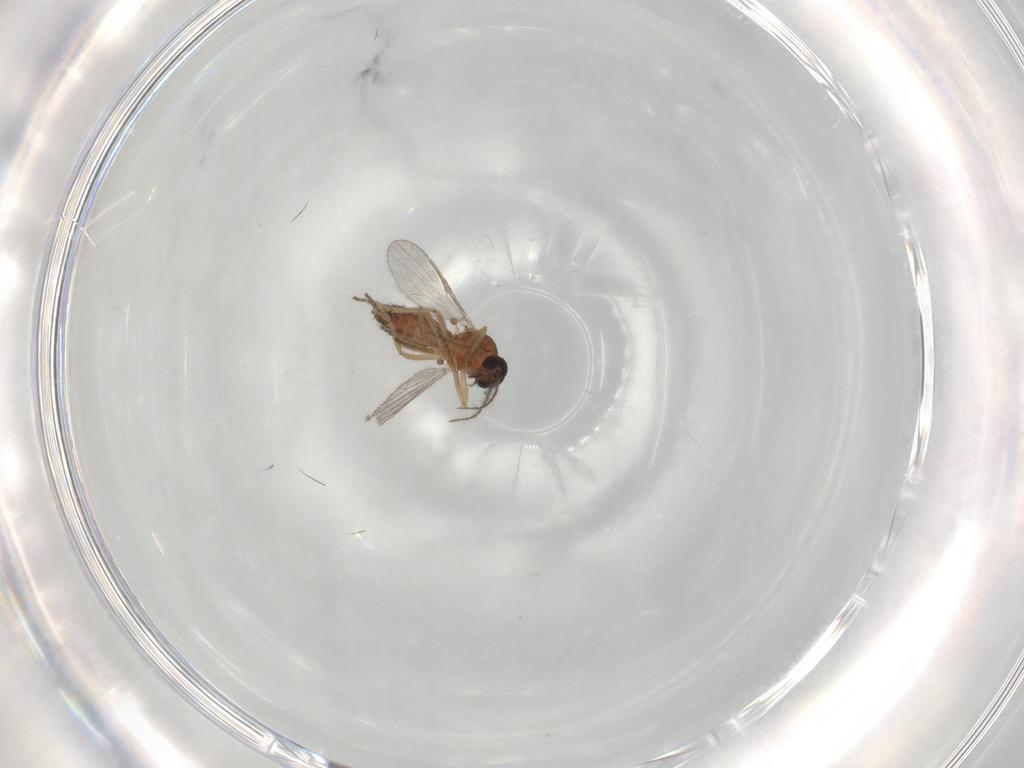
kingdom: Animalia
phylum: Arthropoda
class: Insecta
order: Diptera
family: Ceratopogonidae
